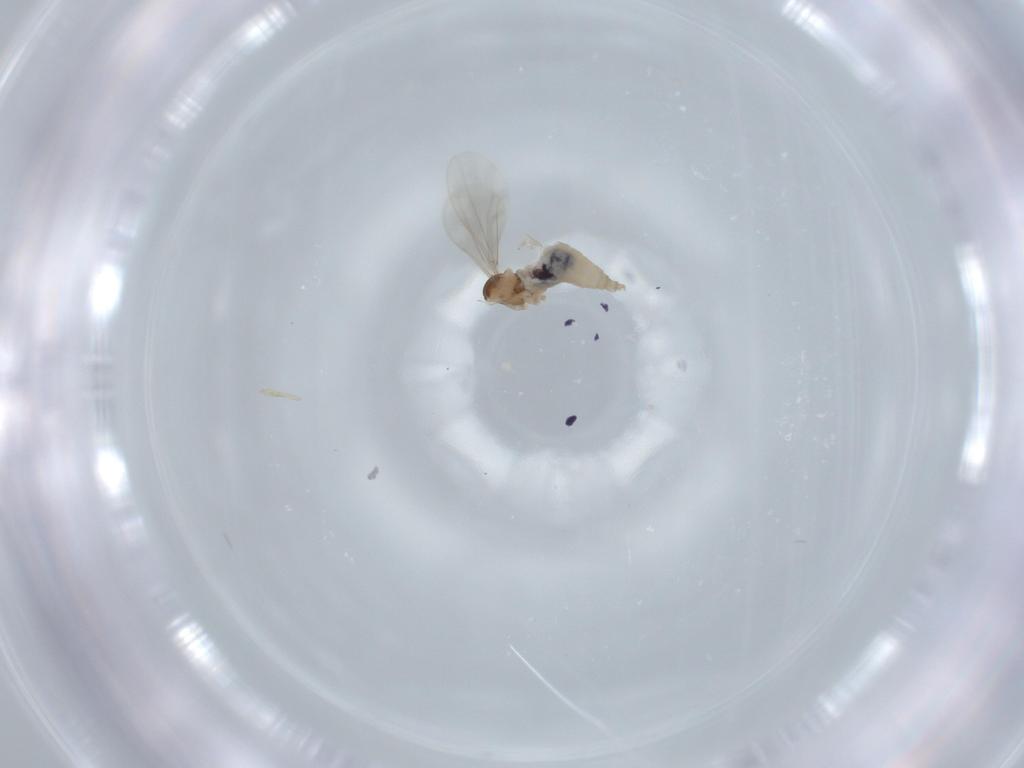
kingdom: Animalia
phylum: Arthropoda
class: Insecta
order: Diptera
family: Cecidomyiidae
